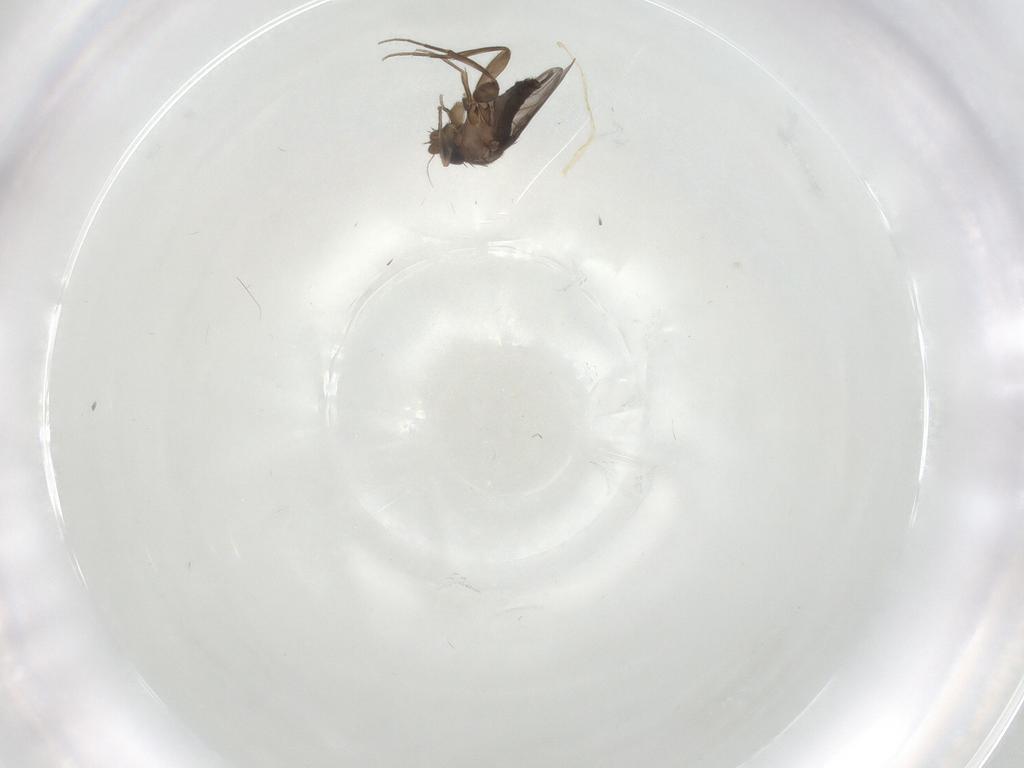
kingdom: Animalia
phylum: Arthropoda
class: Insecta
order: Diptera
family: Phoridae
